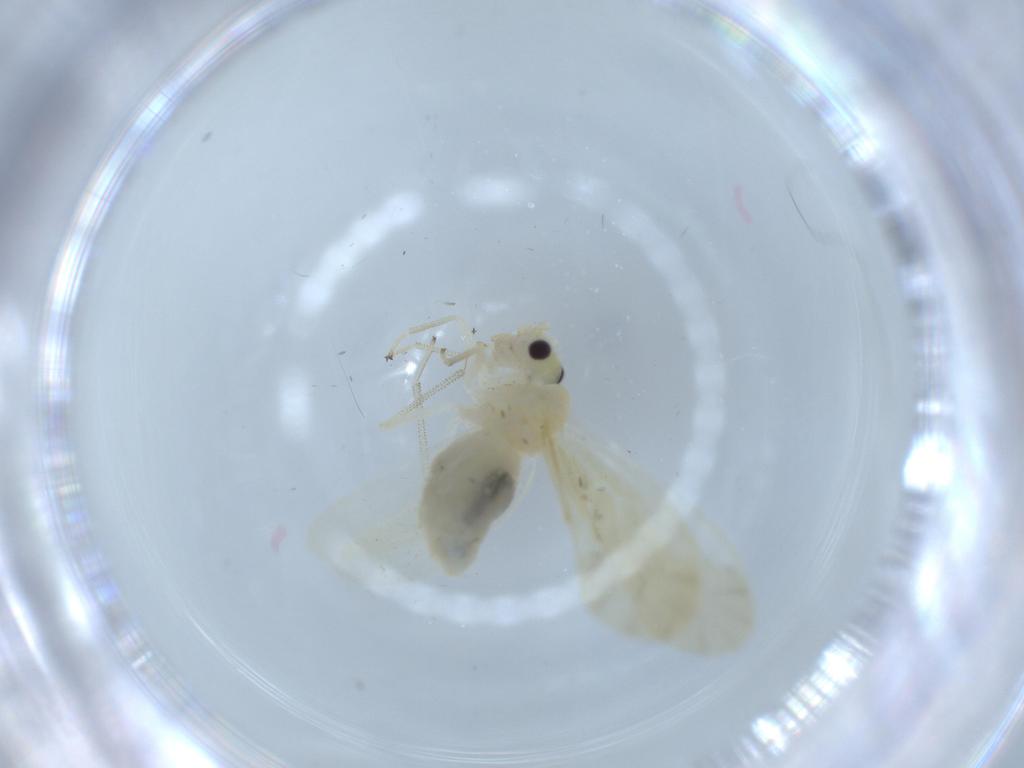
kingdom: Animalia
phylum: Arthropoda
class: Insecta
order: Psocodea
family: Caeciliusidae
